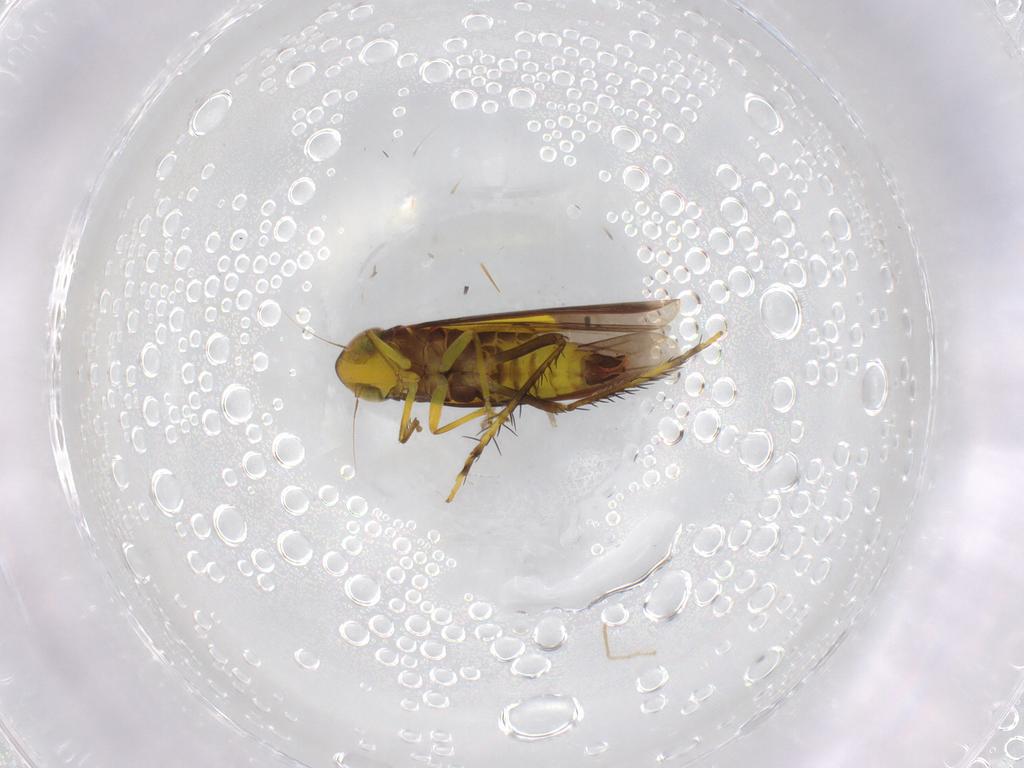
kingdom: Animalia
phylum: Arthropoda
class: Insecta
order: Hemiptera
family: Cicadellidae
